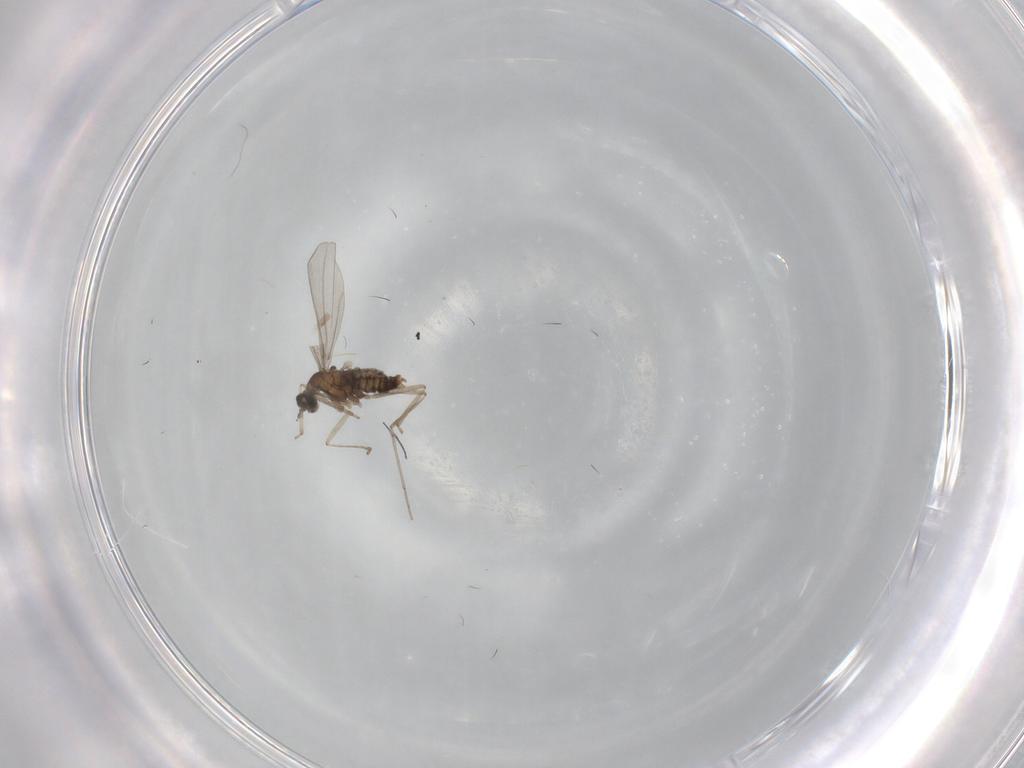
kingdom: Animalia
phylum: Arthropoda
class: Insecta
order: Diptera
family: Cecidomyiidae
